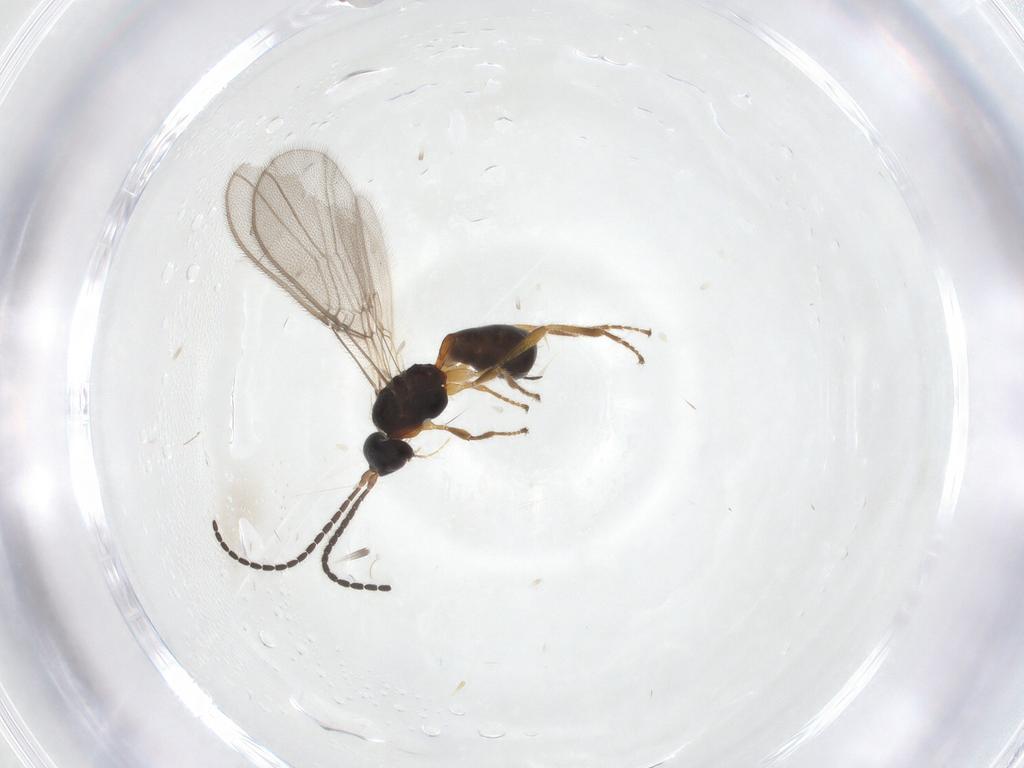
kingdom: Animalia
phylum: Arthropoda
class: Insecta
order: Hymenoptera
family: Braconidae
